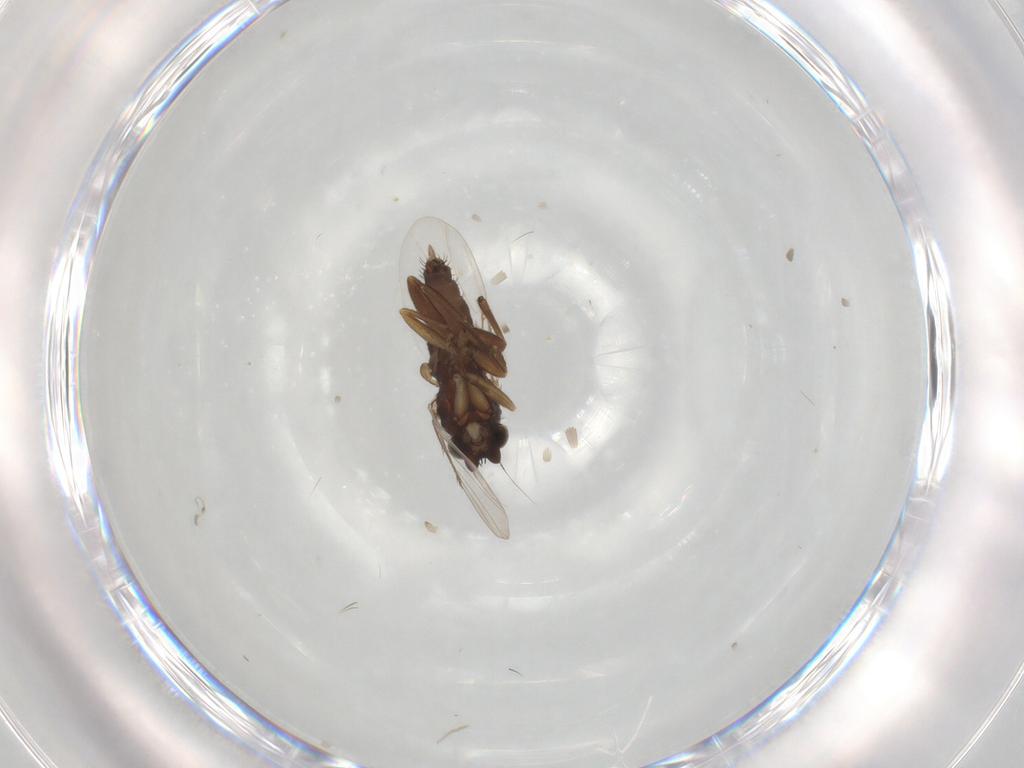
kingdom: Animalia
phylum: Arthropoda
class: Insecta
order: Diptera
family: Phoridae
